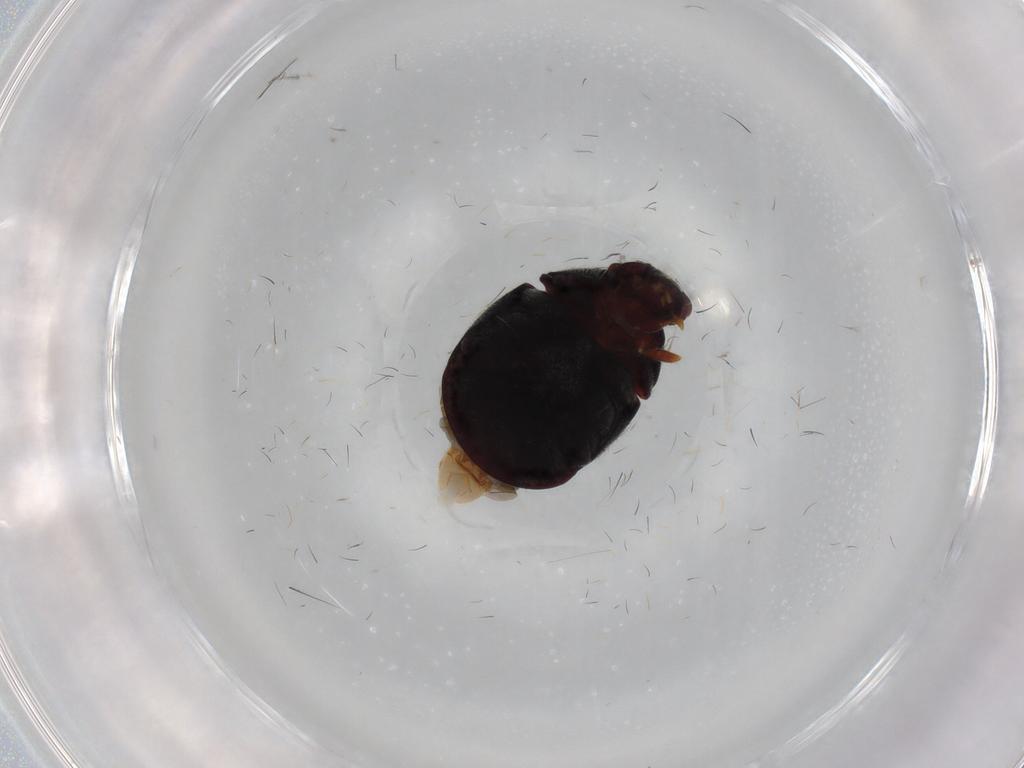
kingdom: Animalia
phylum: Arthropoda
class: Insecta
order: Coleoptera
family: Ptinidae
